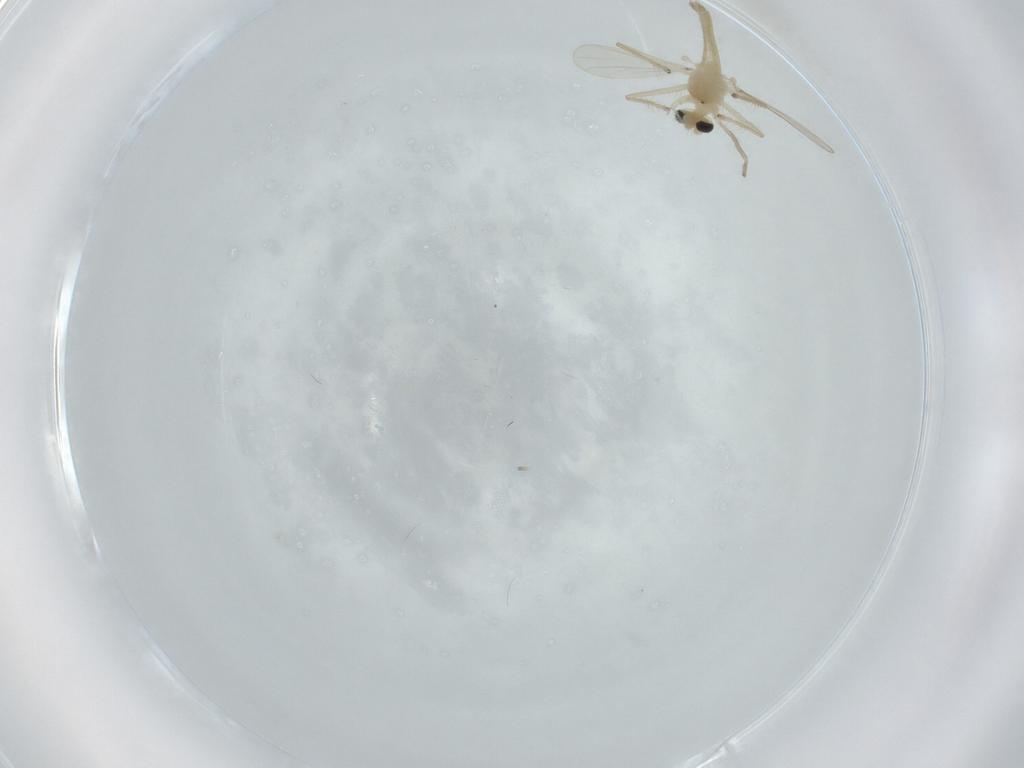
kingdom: Animalia
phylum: Arthropoda
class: Insecta
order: Diptera
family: Chironomidae
